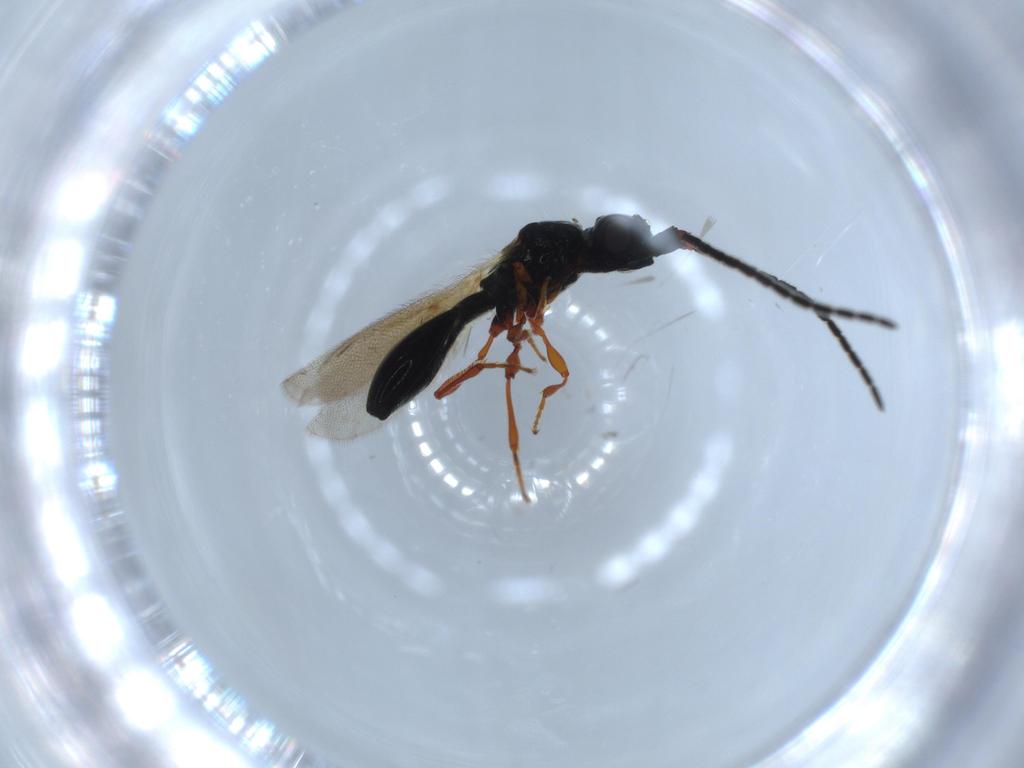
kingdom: Animalia
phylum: Arthropoda
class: Insecta
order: Hymenoptera
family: Diapriidae
